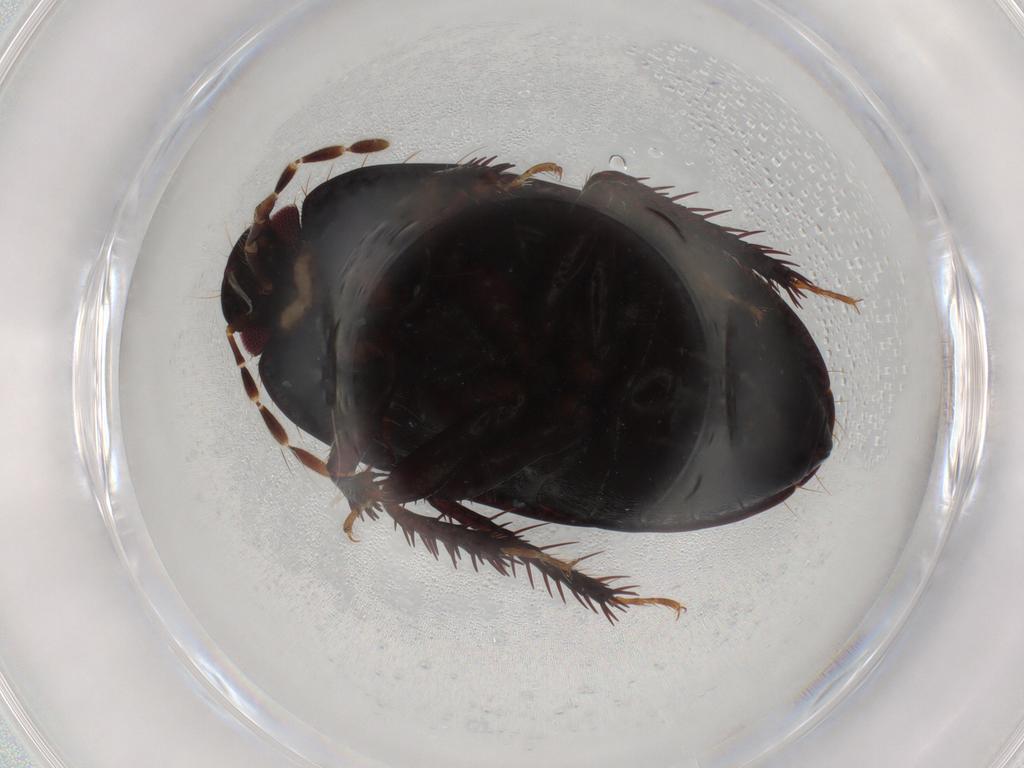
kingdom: Animalia
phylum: Arthropoda
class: Insecta
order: Hemiptera
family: Cydnidae
